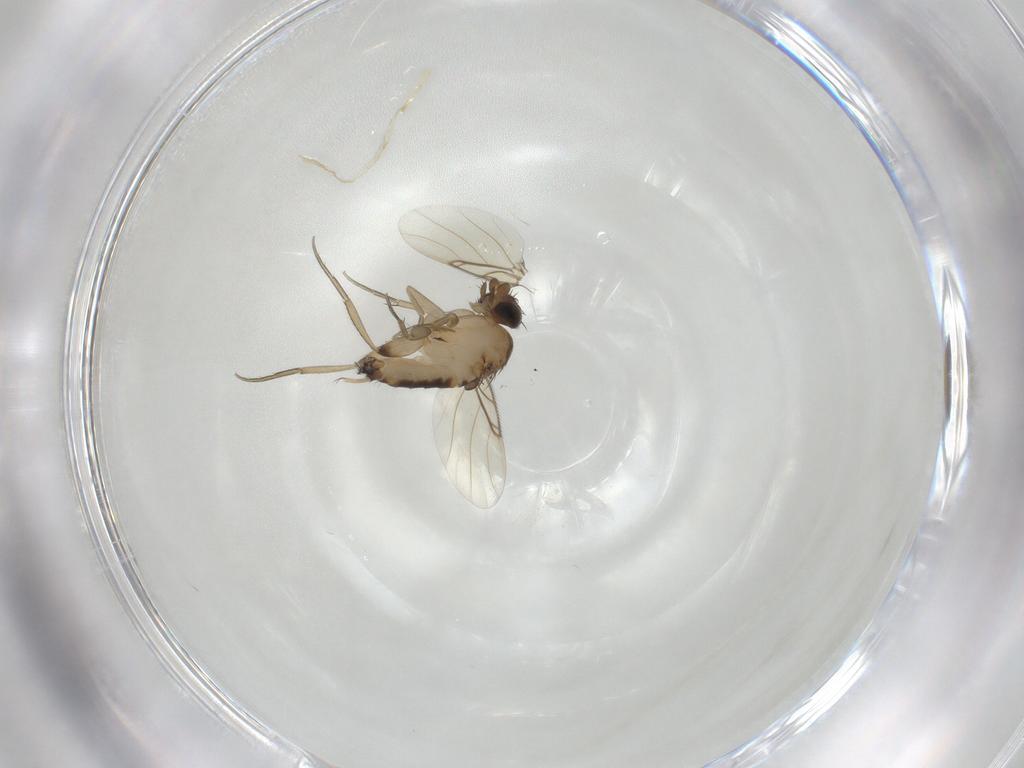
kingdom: Animalia
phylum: Arthropoda
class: Insecta
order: Diptera
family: Phoridae
